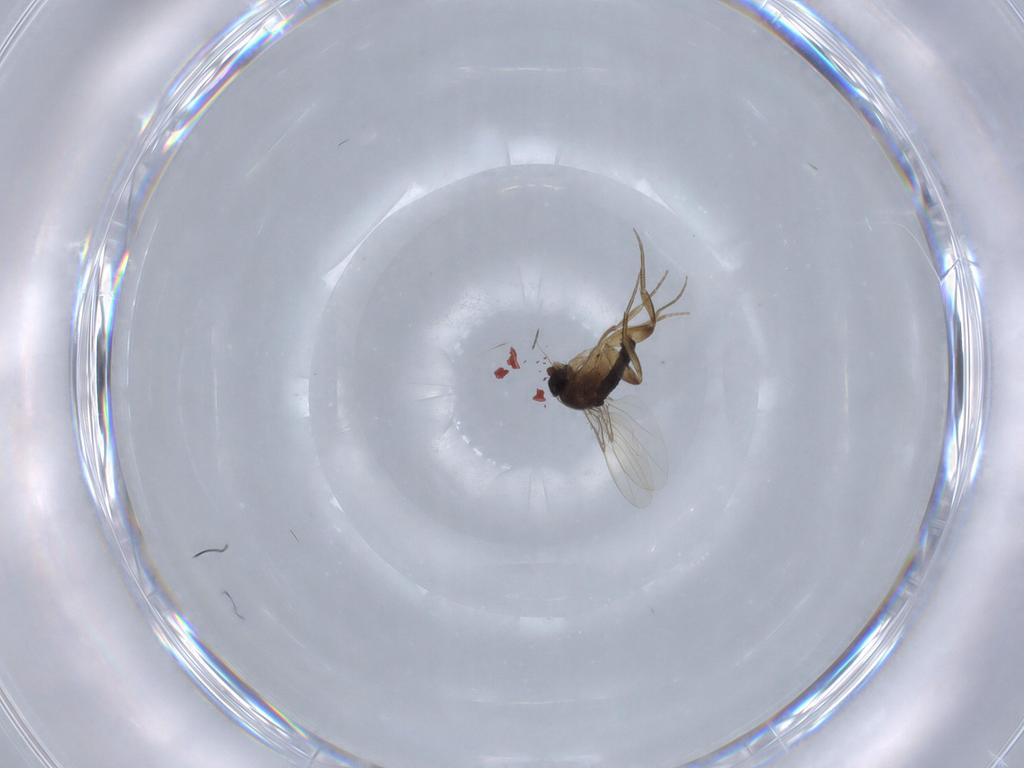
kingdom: Animalia
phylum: Arthropoda
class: Insecta
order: Diptera
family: Phoridae
